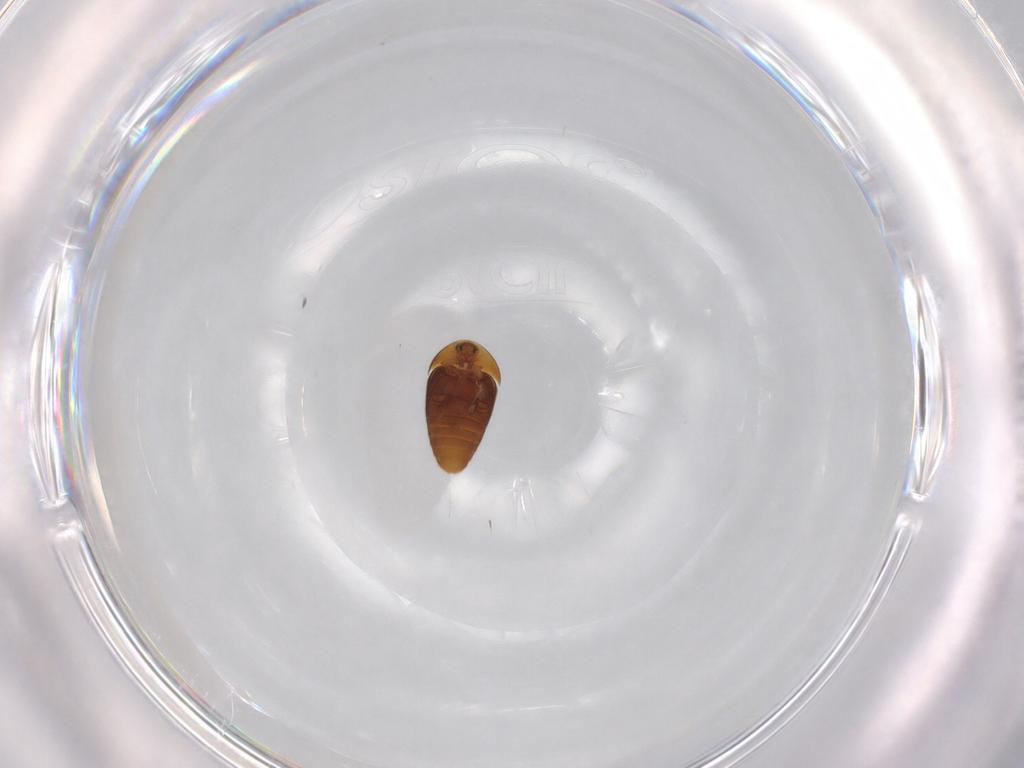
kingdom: Animalia
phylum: Arthropoda
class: Insecta
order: Coleoptera
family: Corylophidae
